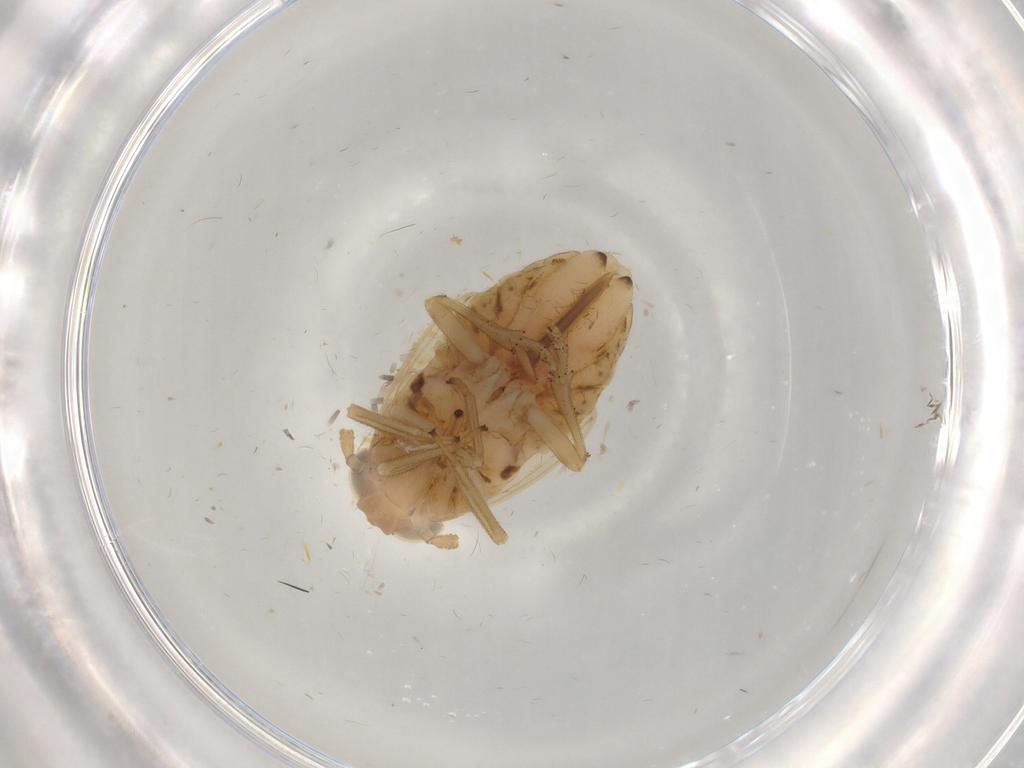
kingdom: Animalia
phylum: Arthropoda
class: Insecta
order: Hemiptera
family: Delphacidae
